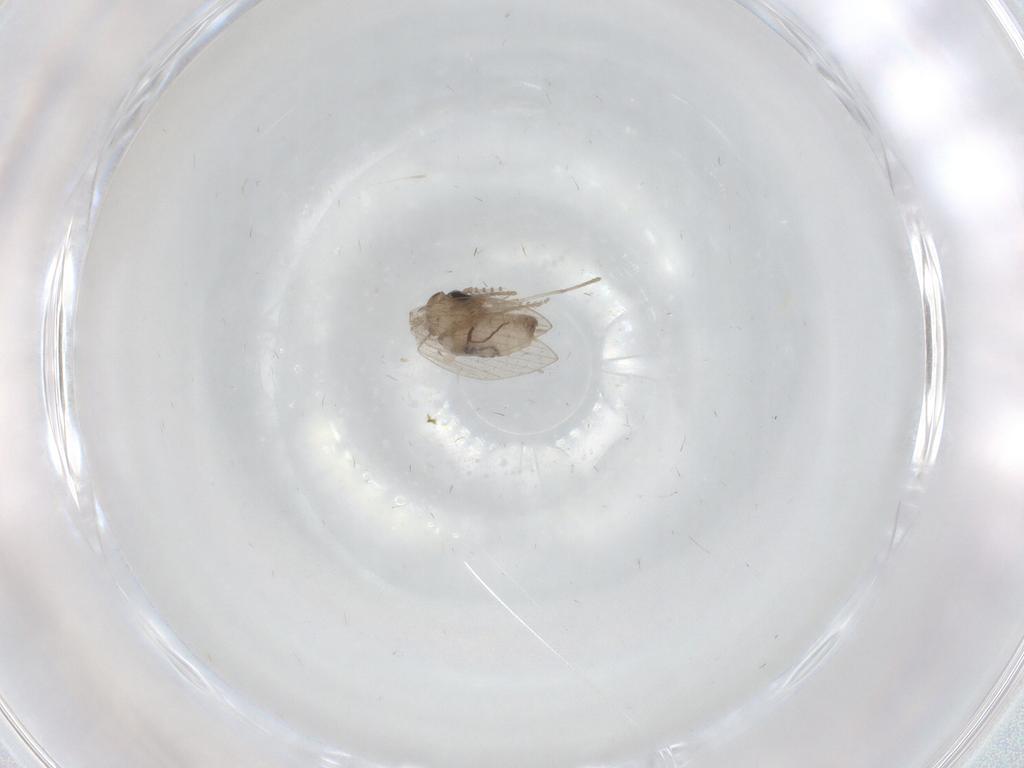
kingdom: Animalia
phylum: Arthropoda
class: Insecta
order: Diptera
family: Psychodidae
